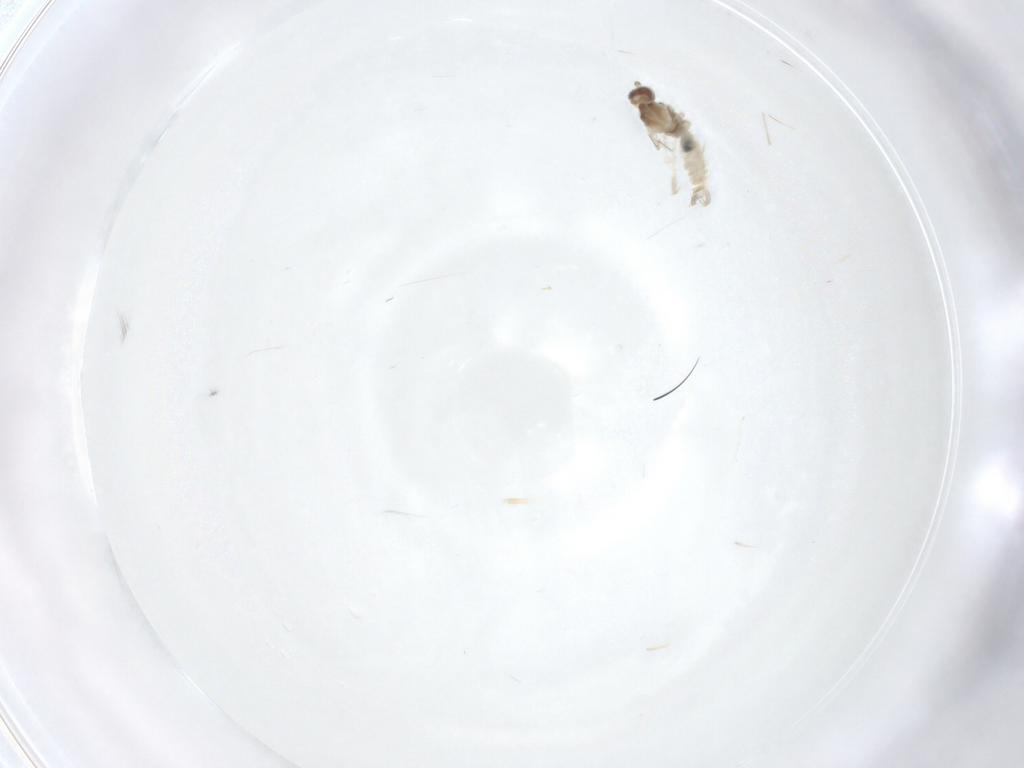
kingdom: Animalia
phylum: Arthropoda
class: Insecta
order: Diptera
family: Cecidomyiidae
